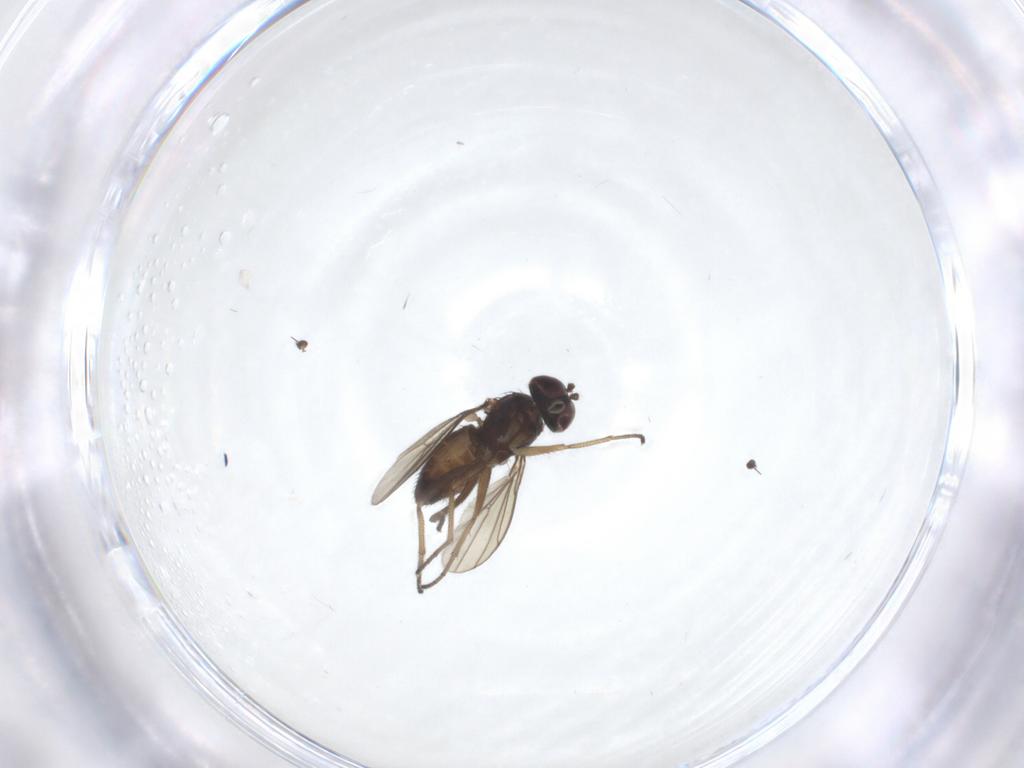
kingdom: Animalia
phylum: Arthropoda
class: Insecta
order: Diptera
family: Dolichopodidae
